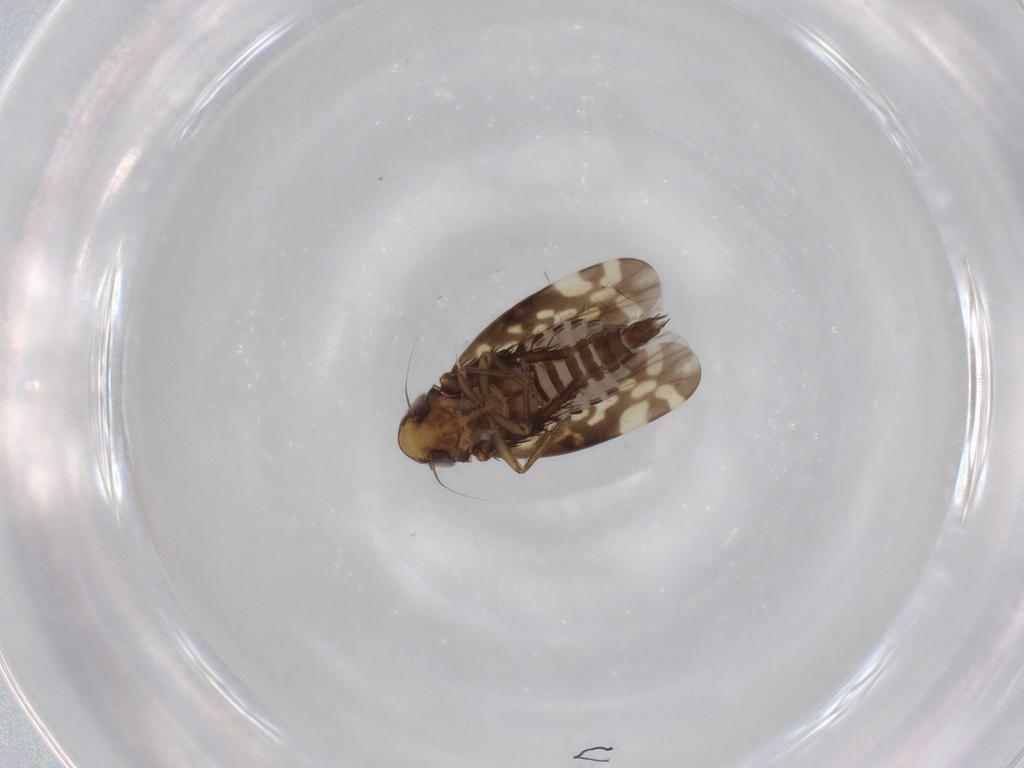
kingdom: Animalia
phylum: Arthropoda
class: Insecta
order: Hemiptera
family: Cicadellidae
